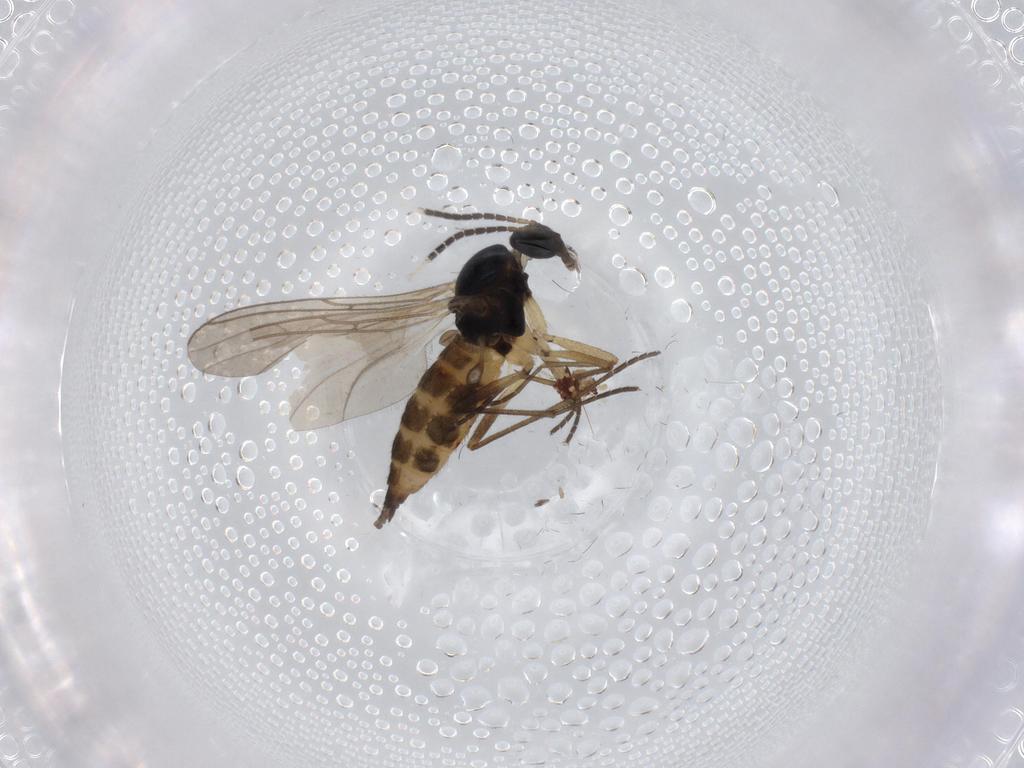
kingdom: Animalia
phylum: Arthropoda
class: Insecta
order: Diptera
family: Sciaridae
